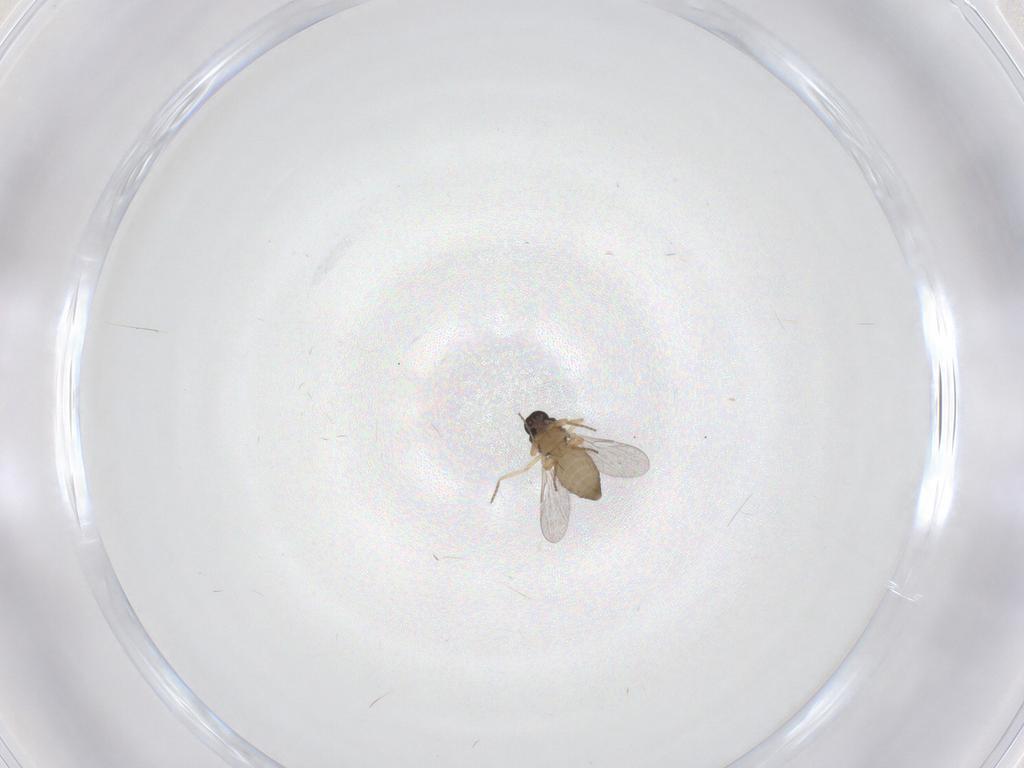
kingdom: Animalia
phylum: Arthropoda
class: Insecta
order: Diptera
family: Ceratopogonidae
